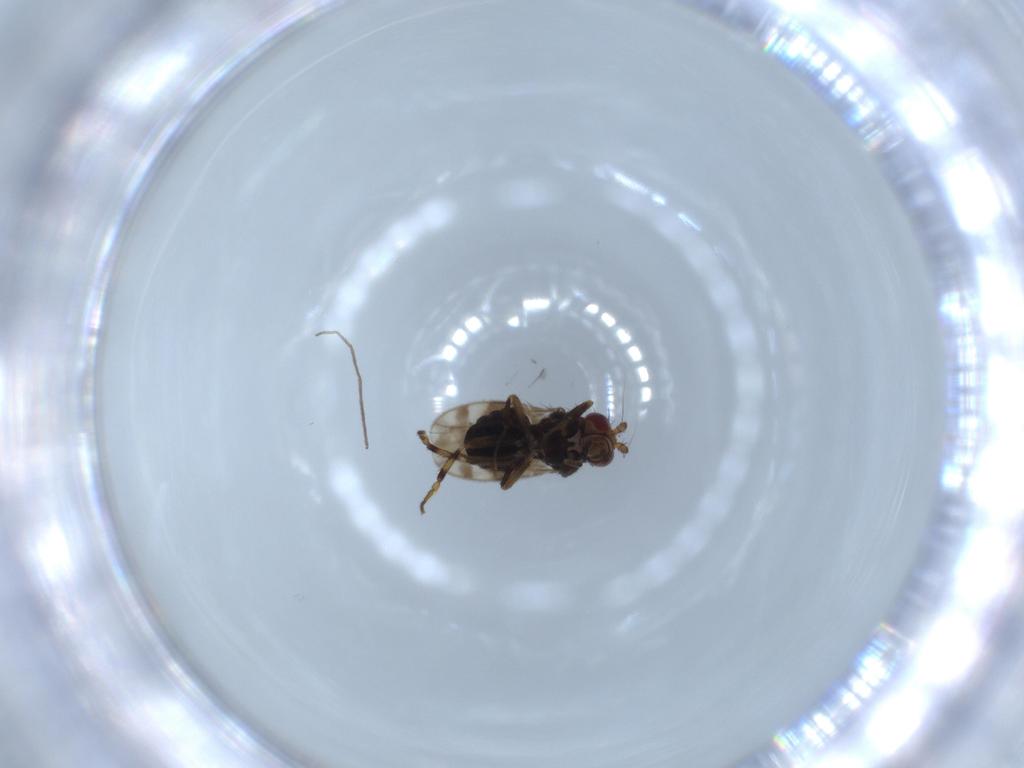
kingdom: Animalia
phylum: Arthropoda
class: Insecta
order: Diptera
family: Sphaeroceridae
